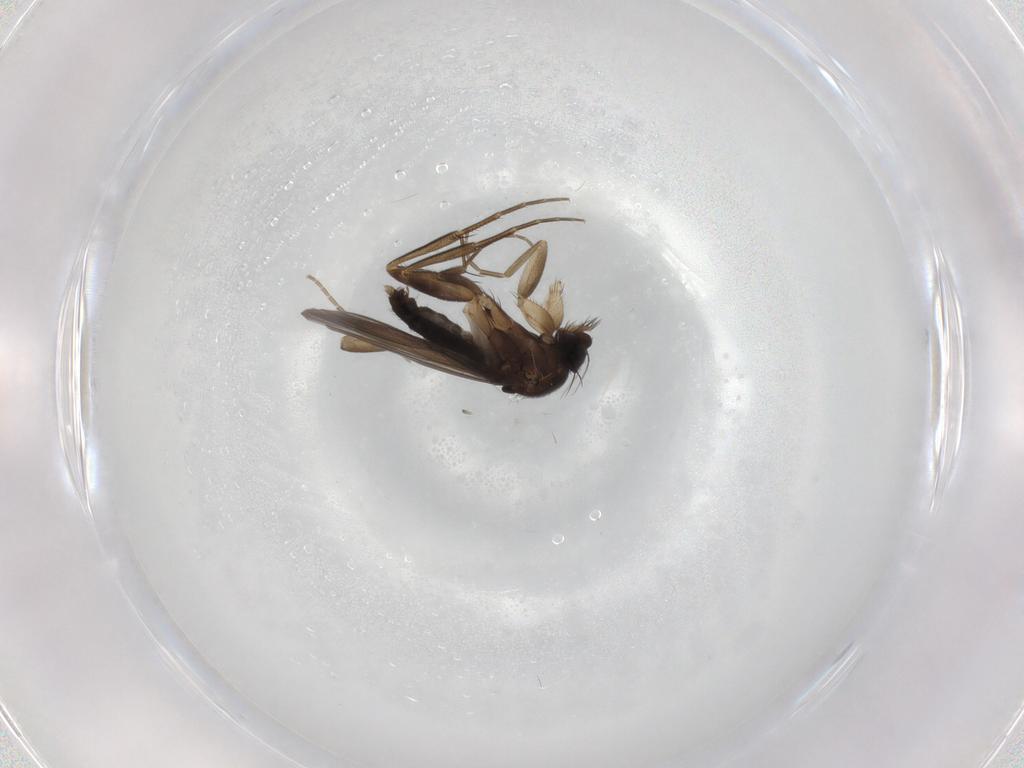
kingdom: Animalia
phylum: Arthropoda
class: Insecta
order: Diptera
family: Phoridae
